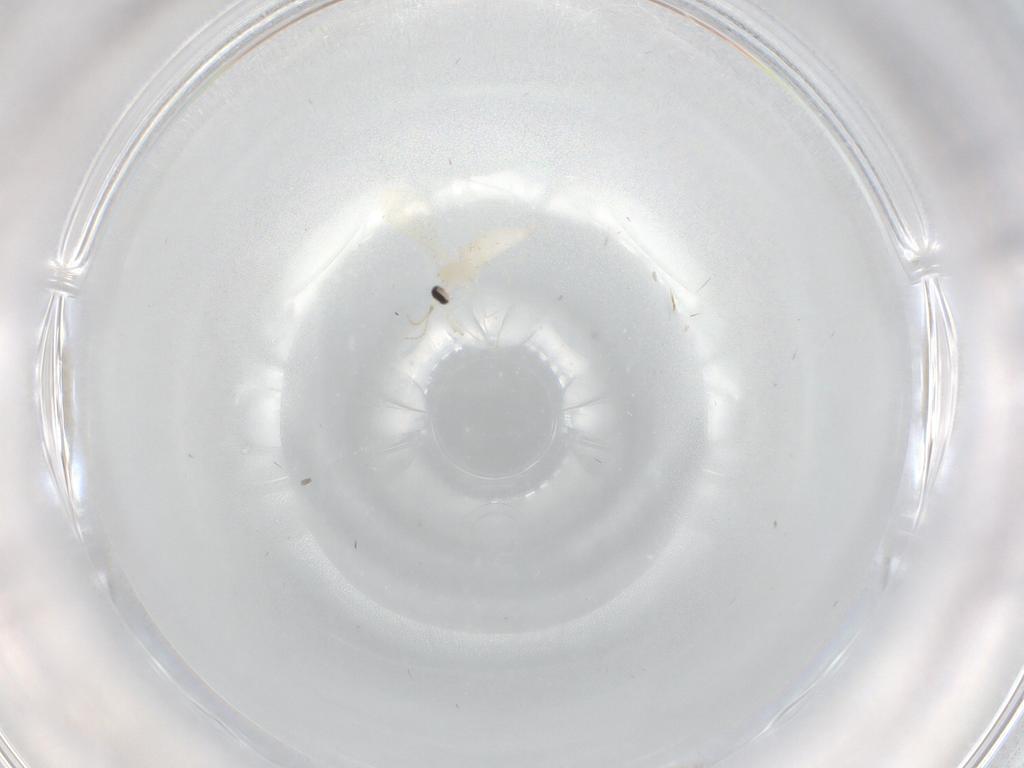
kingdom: Animalia
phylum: Arthropoda
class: Insecta
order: Diptera
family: Cecidomyiidae
